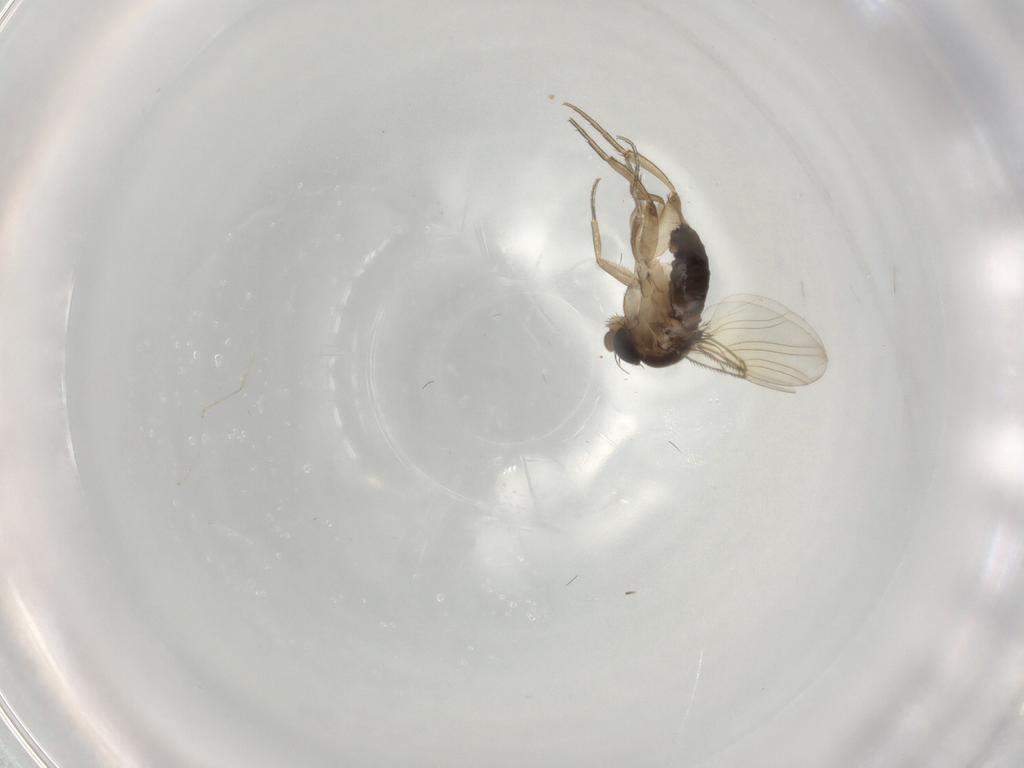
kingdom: Animalia
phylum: Arthropoda
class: Insecta
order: Diptera
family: Phoridae
